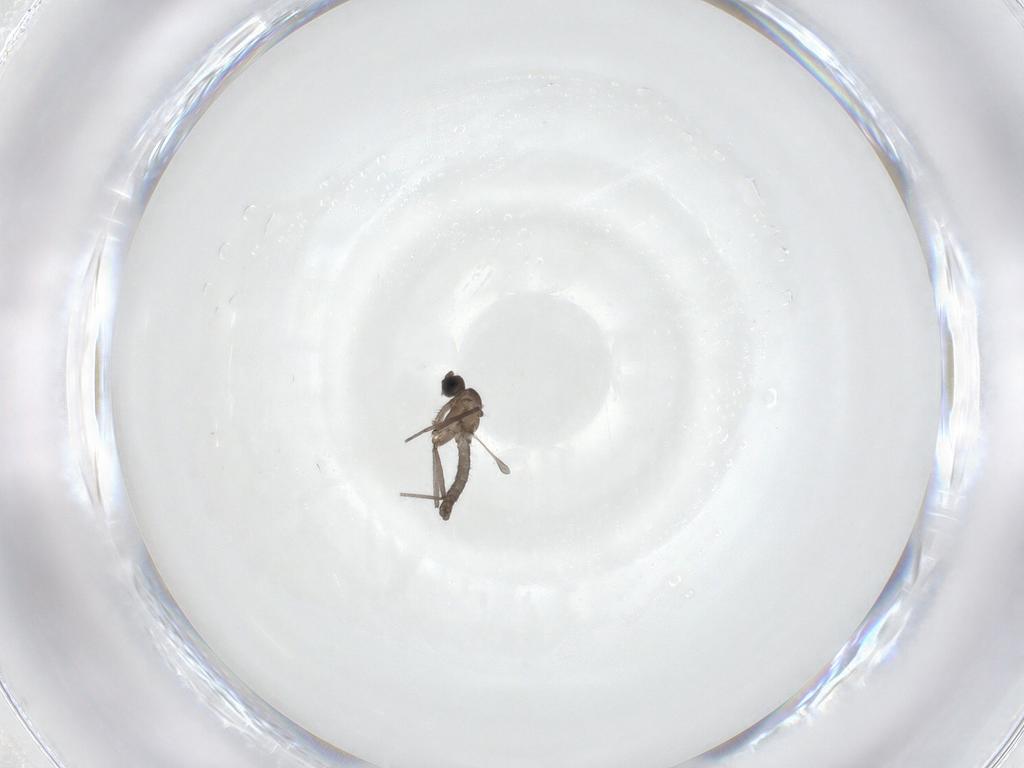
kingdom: Animalia
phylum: Arthropoda
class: Insecta
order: Diptera
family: Sciaridae
